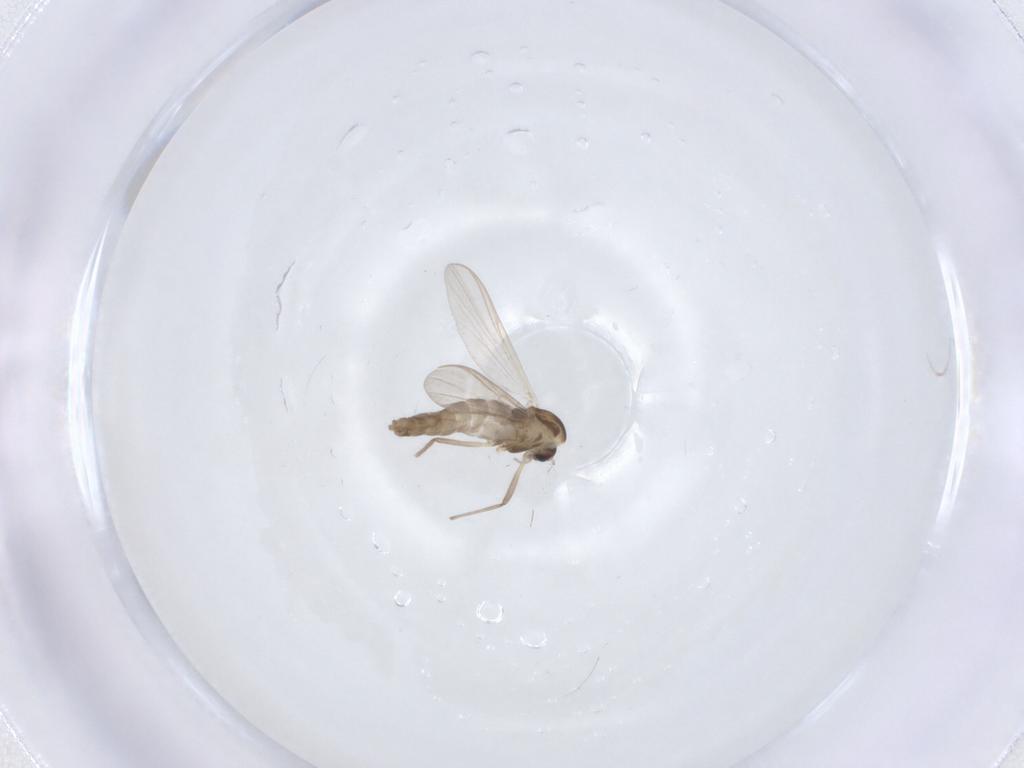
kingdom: Animalia
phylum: Arthropoda
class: Insecta
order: Diptera
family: Chironomidae
